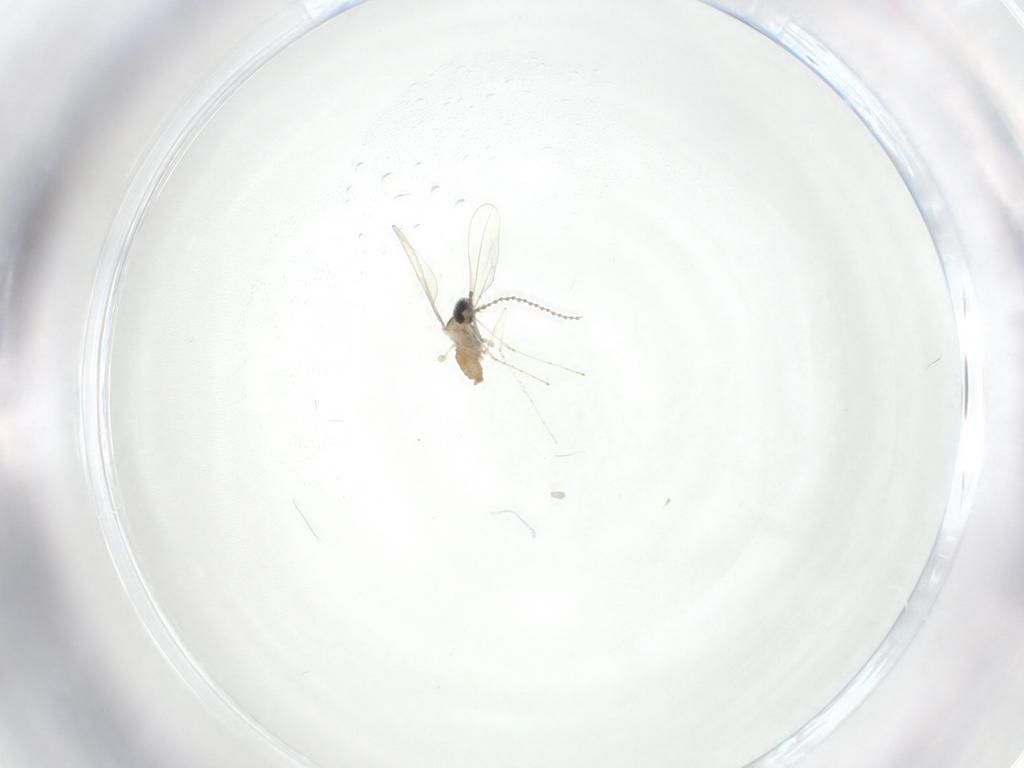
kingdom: Animalia
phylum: Arthropoda
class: Insecta
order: Diptera
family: Cecidomyiidae
